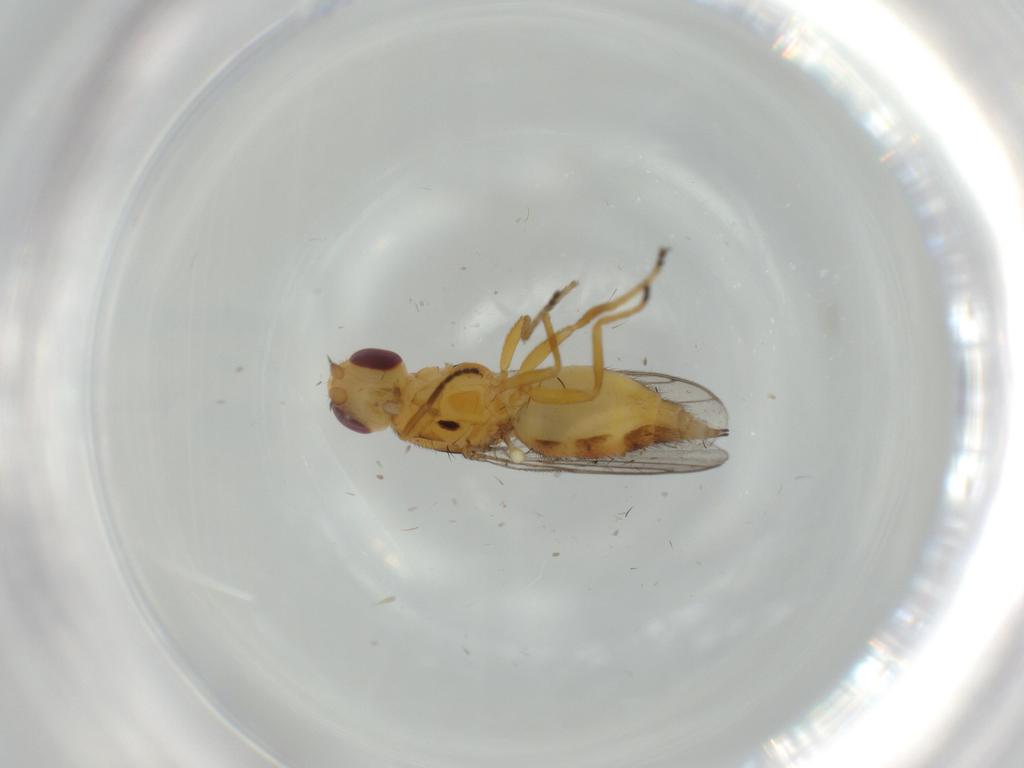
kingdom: Animalia
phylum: Arthropoda
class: Insecta
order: Diptera
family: Chloropidae
